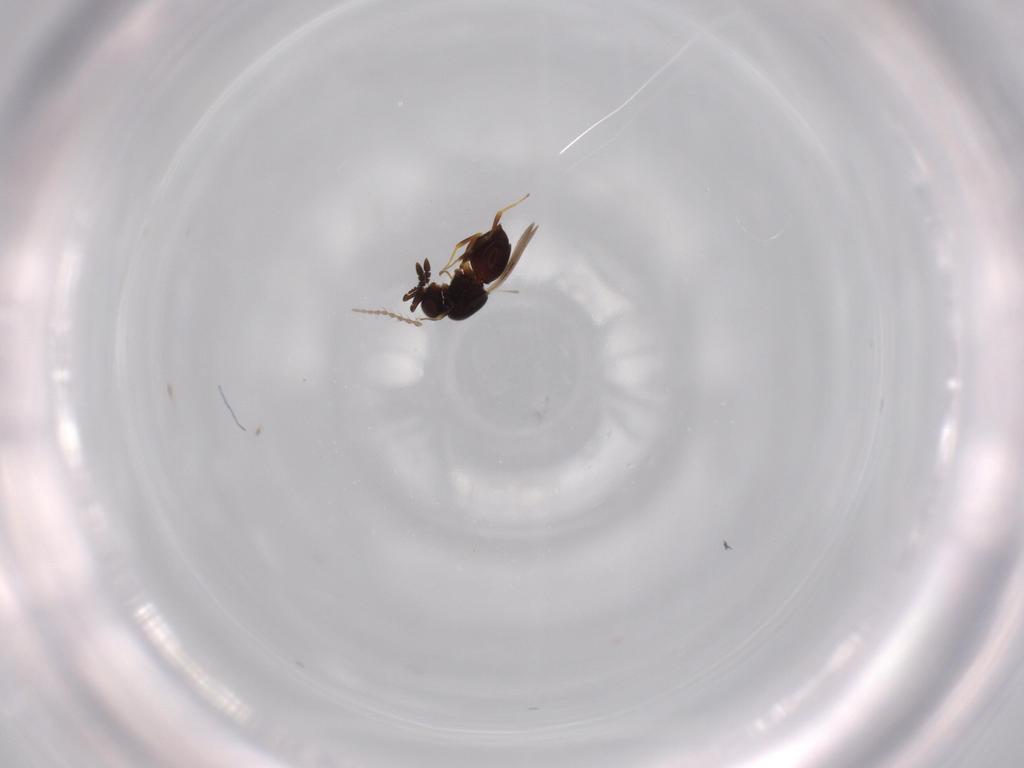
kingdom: Animalia
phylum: Arthropoda
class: Insecta
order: Hymenoptera
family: Ceraphronidae
